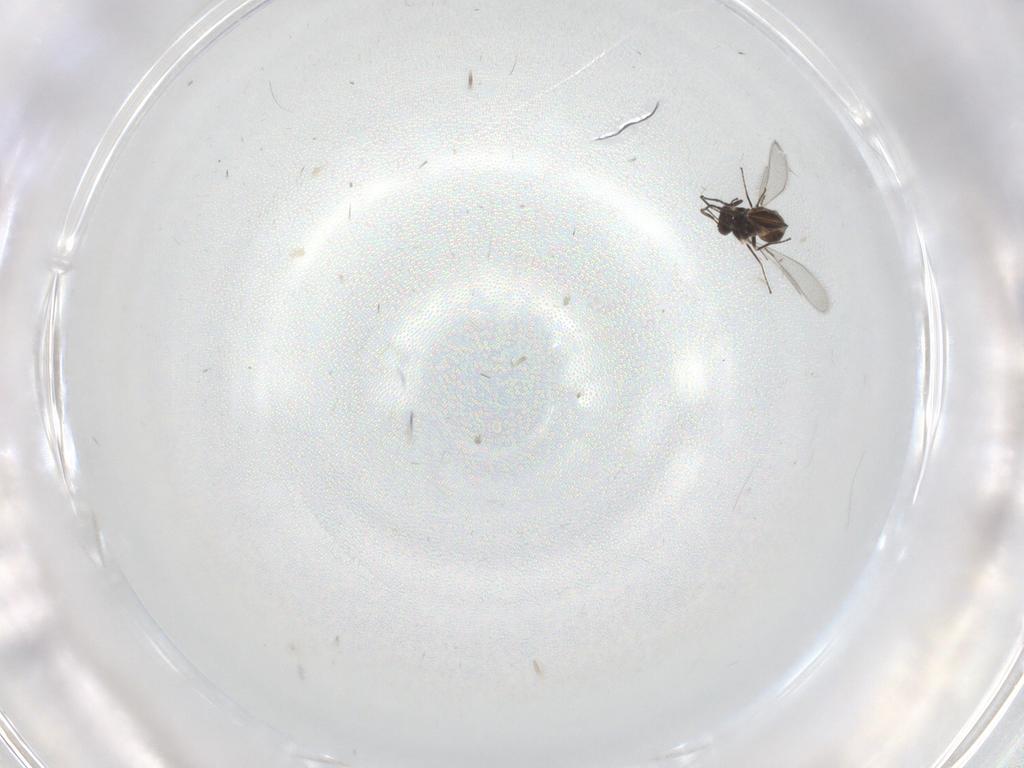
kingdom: Animalia
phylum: Arthropoda
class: Insecta
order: Hymenoptera
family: Mymaridae
